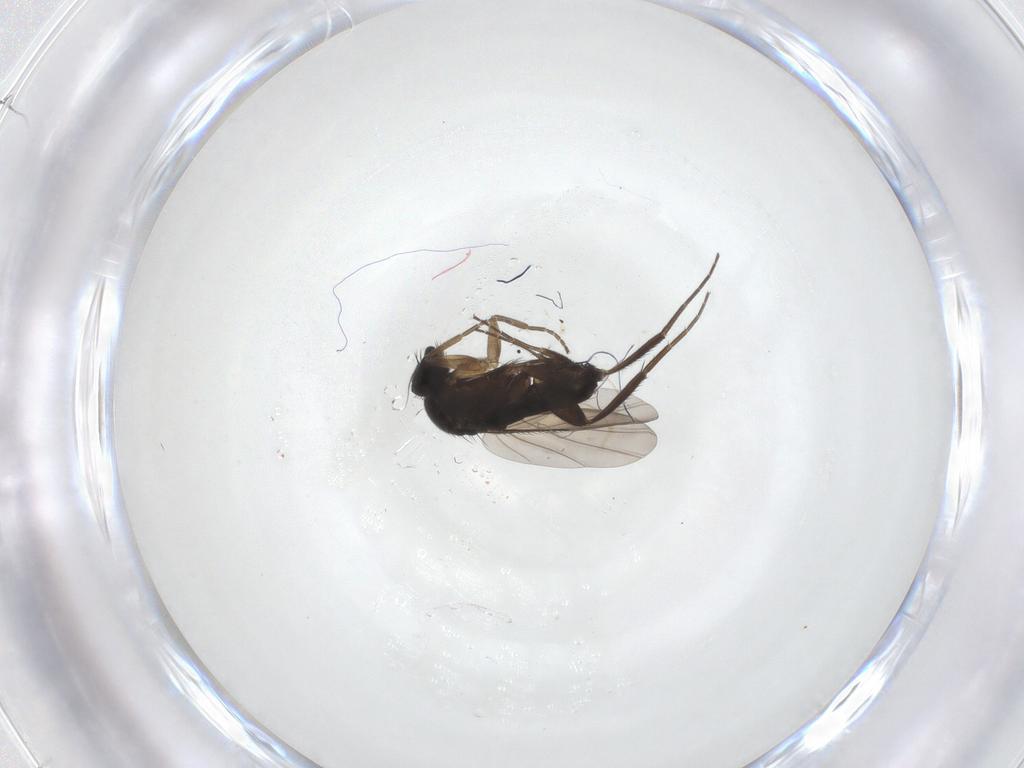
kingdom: Animalia
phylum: Arthropoda
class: Insecta
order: Diptera
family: Phoridae
